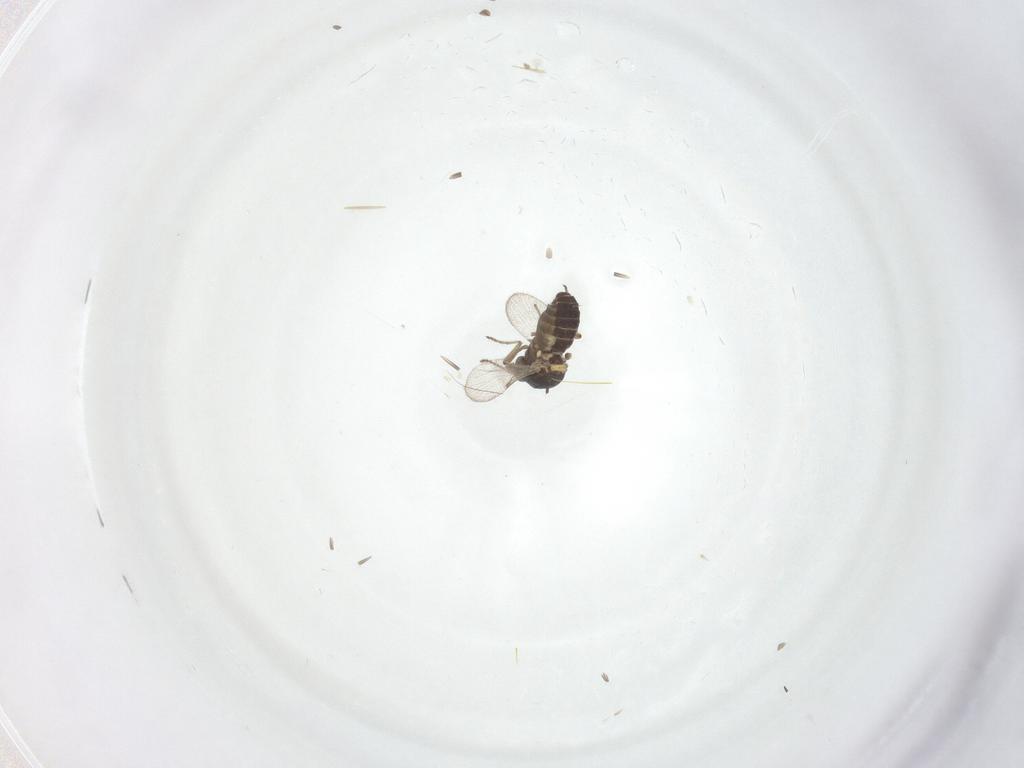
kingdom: Animalia
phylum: Arthropoda
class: Insecta
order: Diptera
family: Ceratopogonidae
